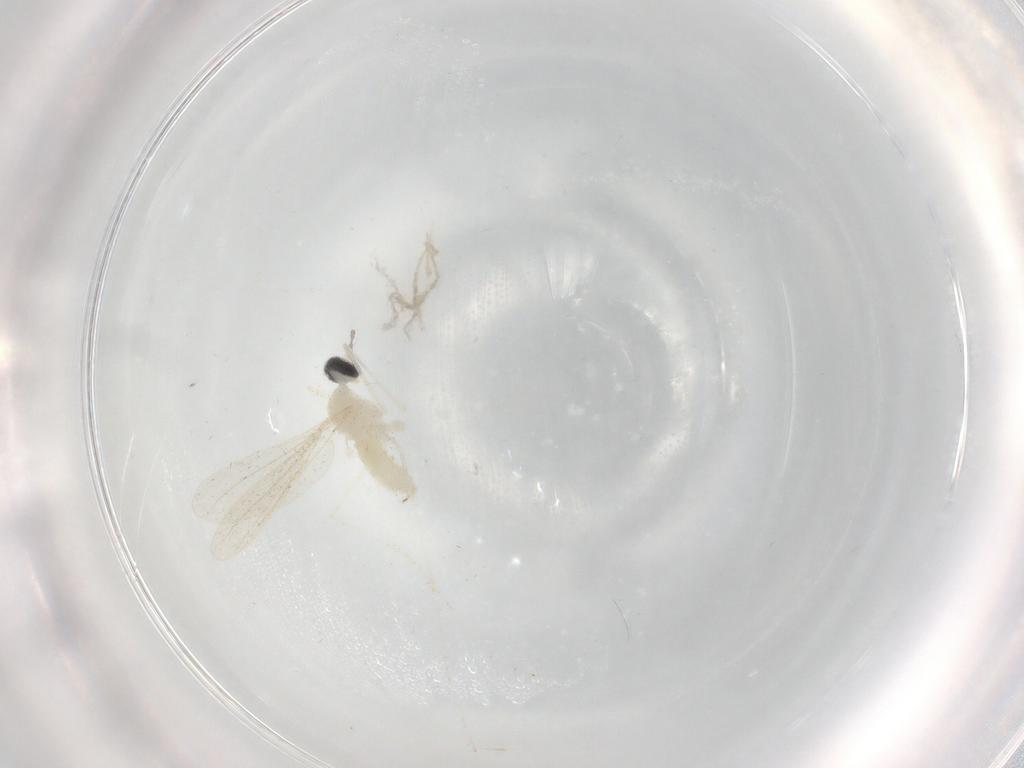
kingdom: Animalia
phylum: Arthropoda
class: Insecta
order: Diptera
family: Cecidomyiidae
